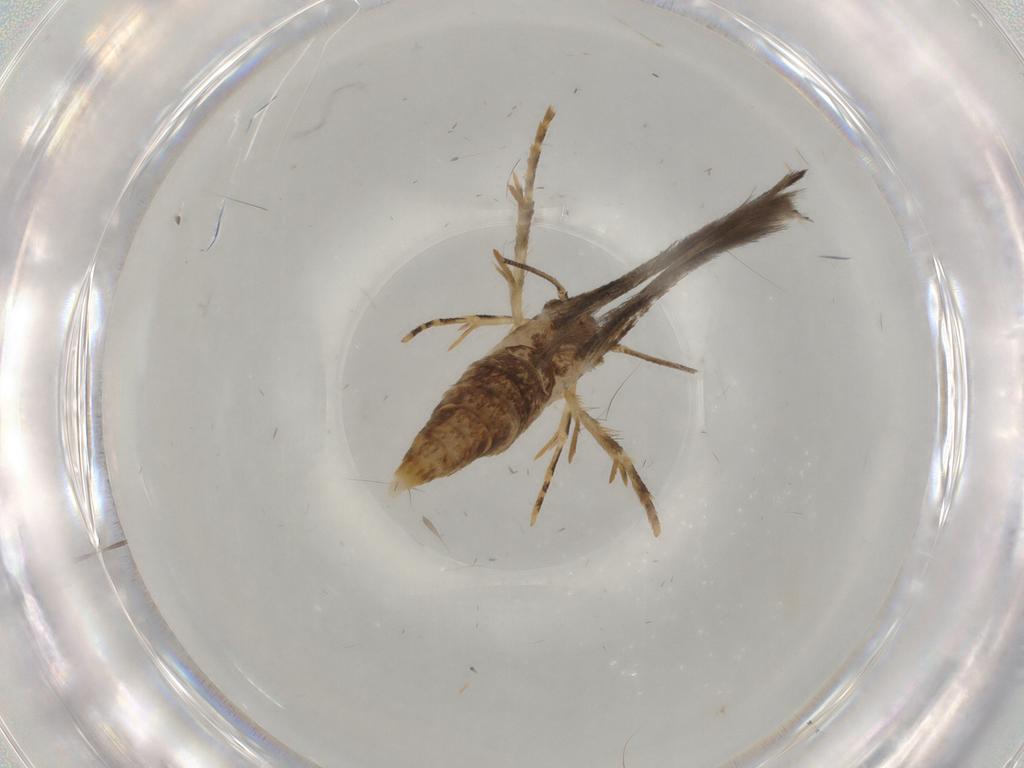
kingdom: Animalia
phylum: Arthropoda
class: Insecta
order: Lepidoptera
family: Momphidae
